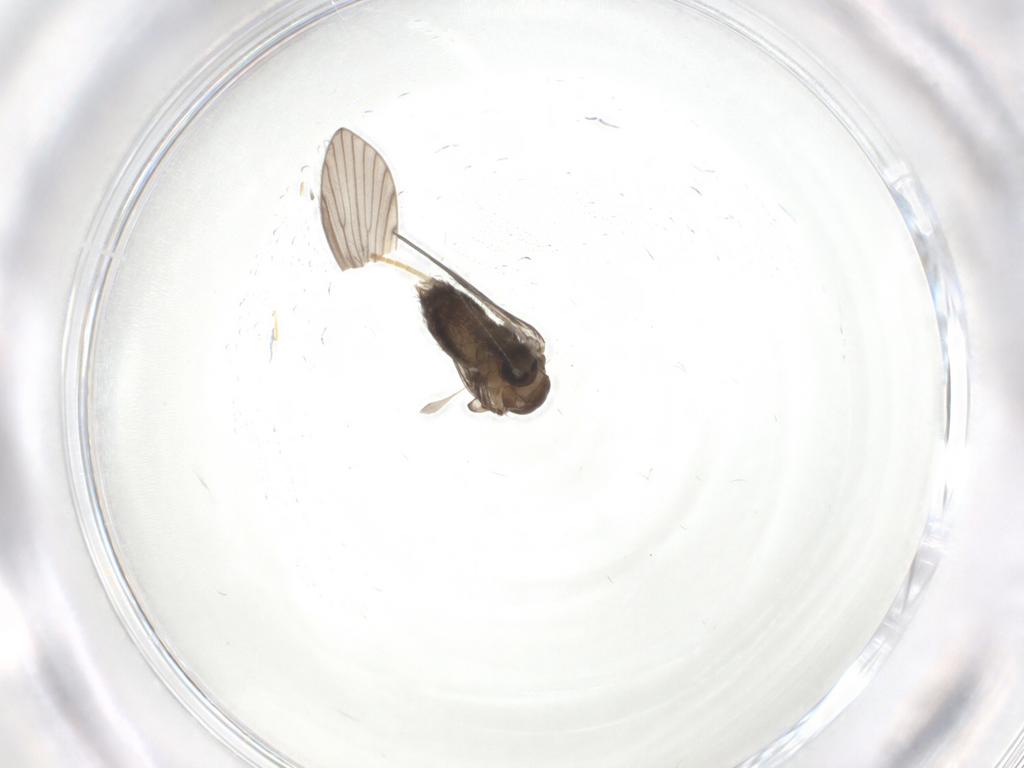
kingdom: Animalia
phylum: Arthropoda
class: Insecta
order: Diptera
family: Psychodidae
